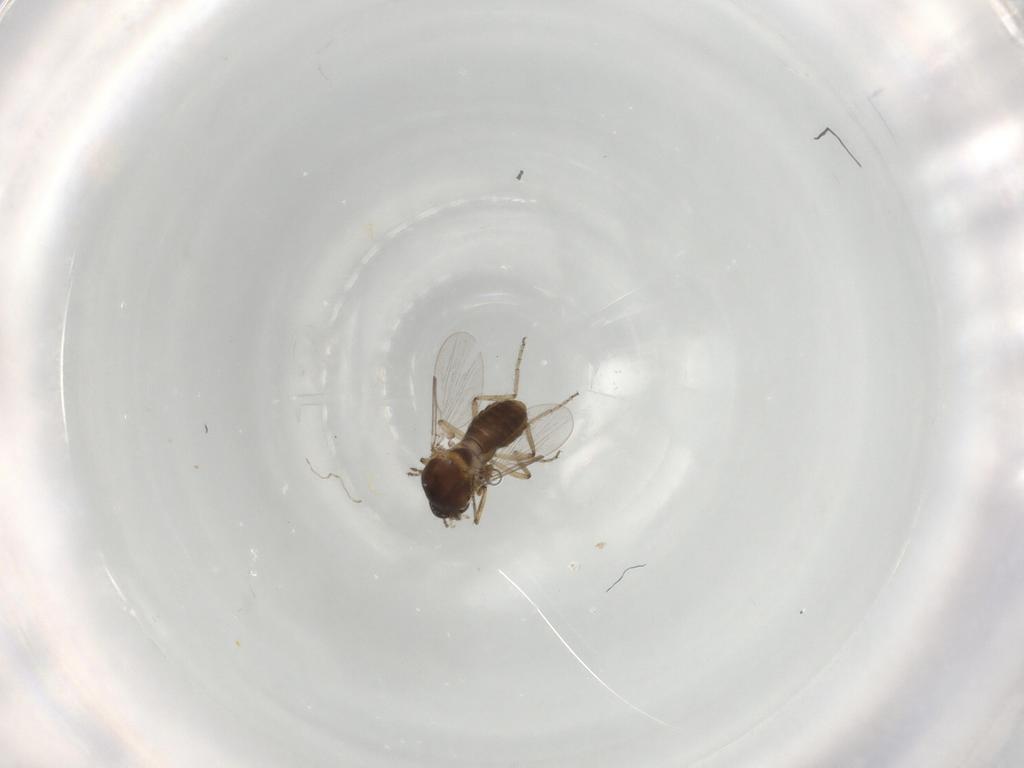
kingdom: Animalia
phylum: Arthropoda
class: Insecta
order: Diptera
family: Ceratopogonidae
